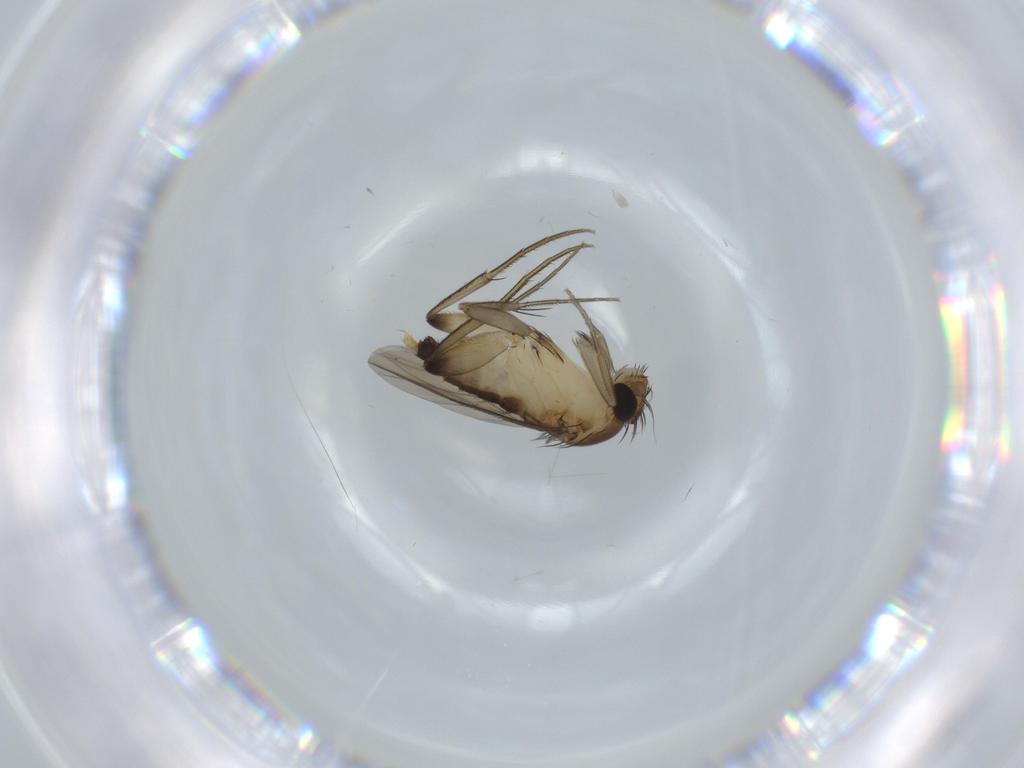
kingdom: Animalia
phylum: Arthropoda
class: Insecta
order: Diptera
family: Phoridae
